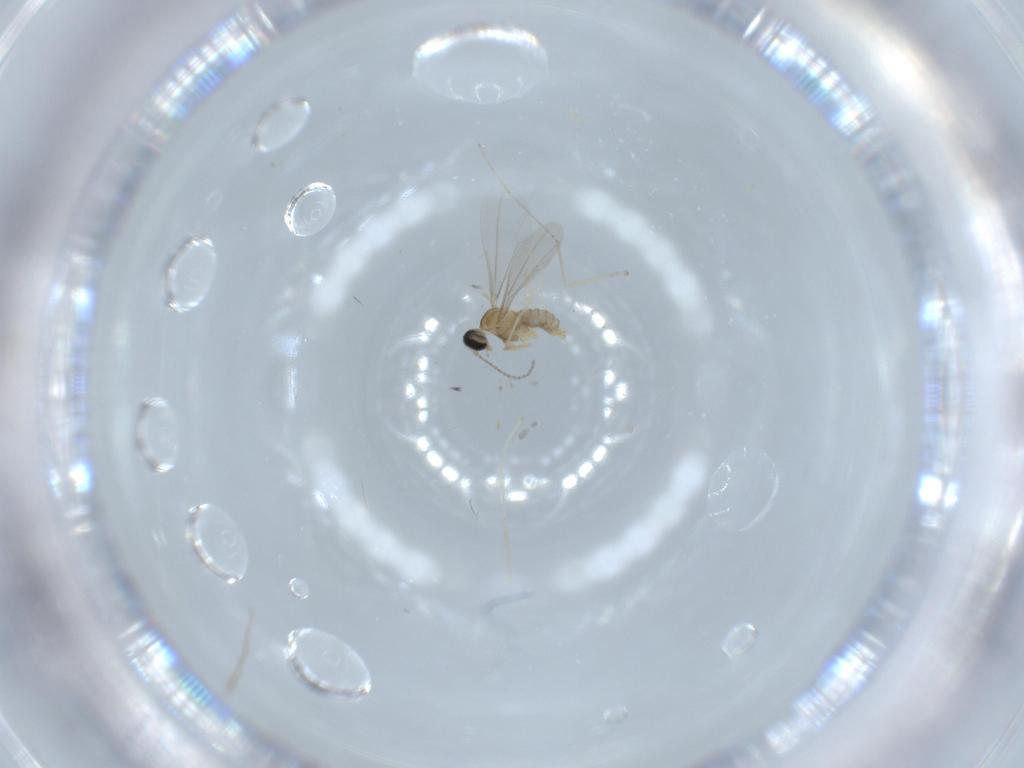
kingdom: Animalia
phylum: Arthropoda
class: Insecta
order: Diptera
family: Cecidomyiidae
